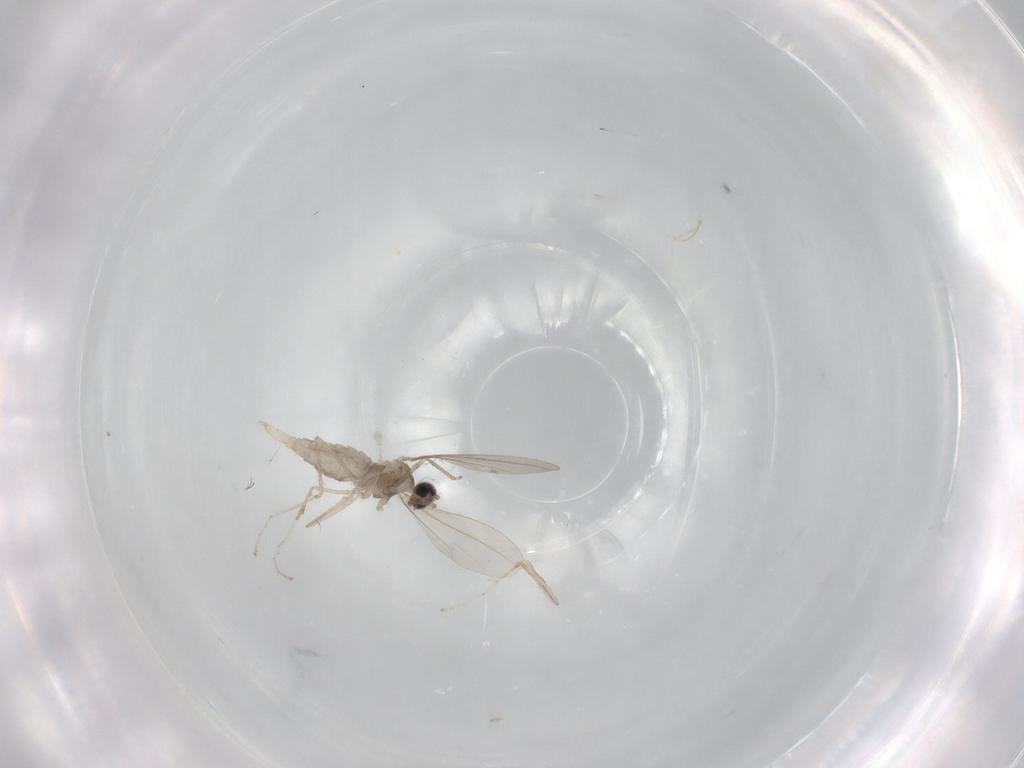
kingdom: Animalia
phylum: Arthropoda
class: Insecta
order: Diptera
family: Cecidomyiidae
